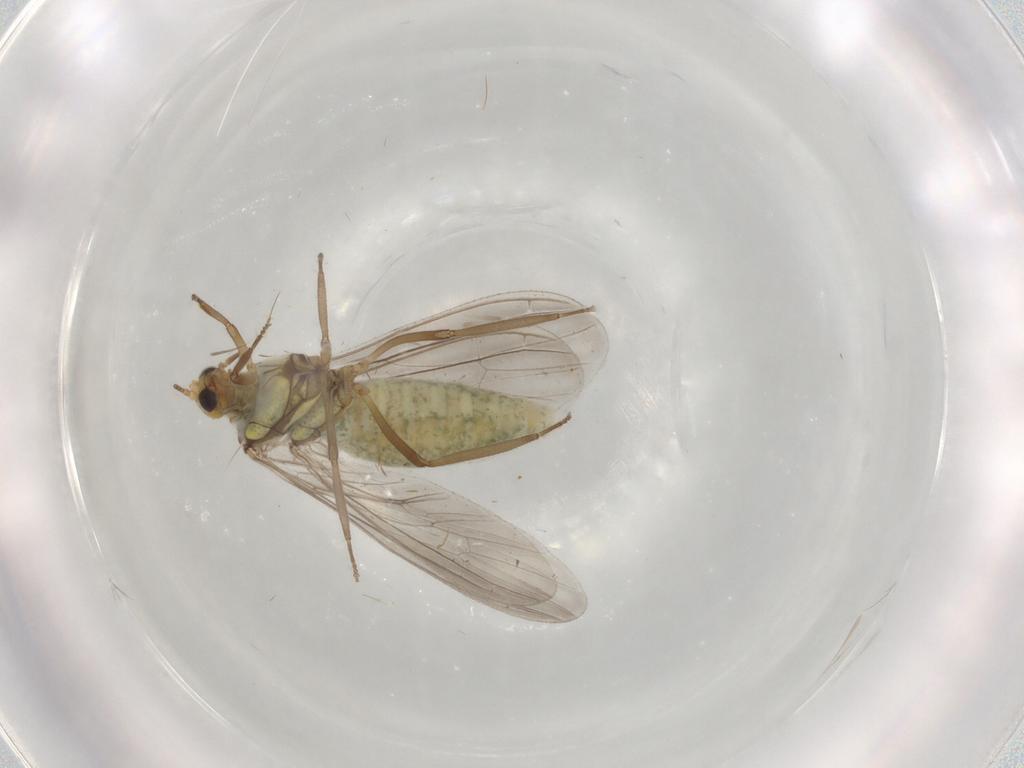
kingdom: Animalia
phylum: Arthropoda
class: Insecta
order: Neuroptera
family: Coniopterygidae
